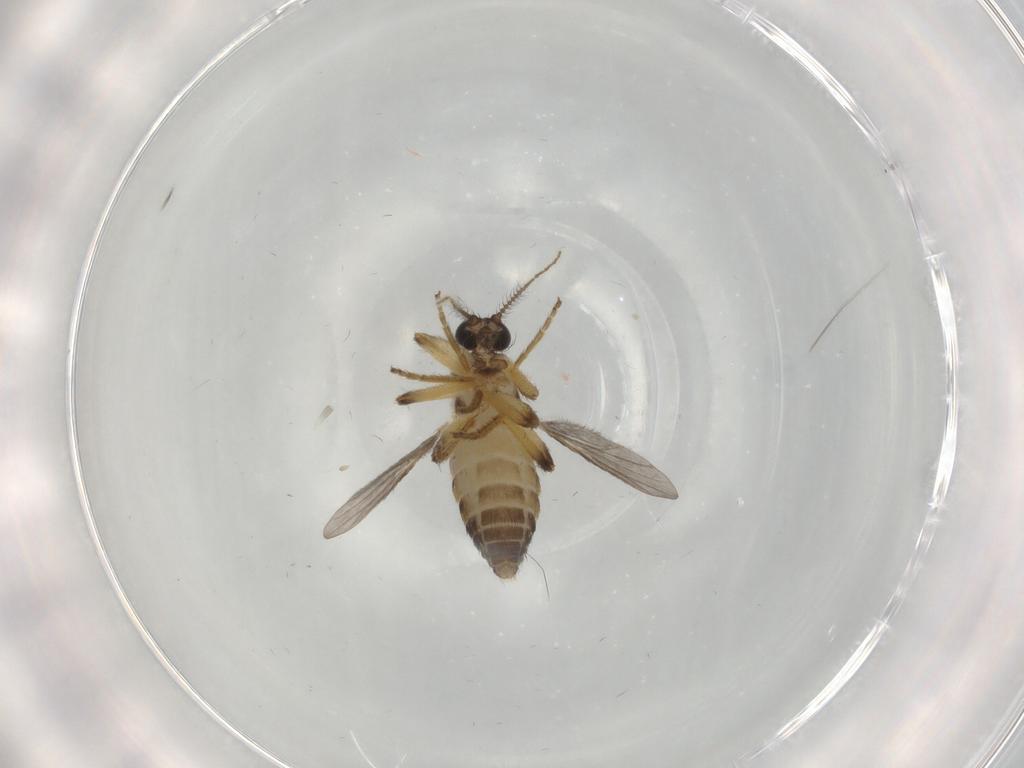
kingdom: Animalia
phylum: Arthropoda
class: Insecta
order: Diptera
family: Ceratopogonidae
